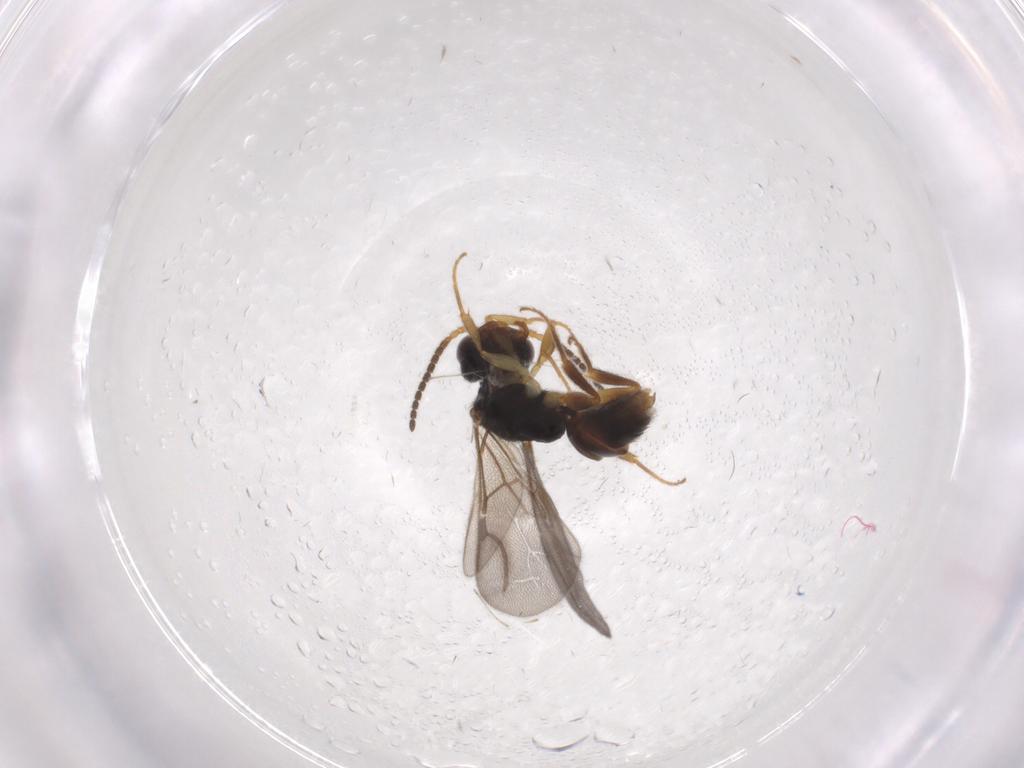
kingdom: Animalia
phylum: Arthropoda
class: Insecta
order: Hymenoptera
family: Bethylidae
